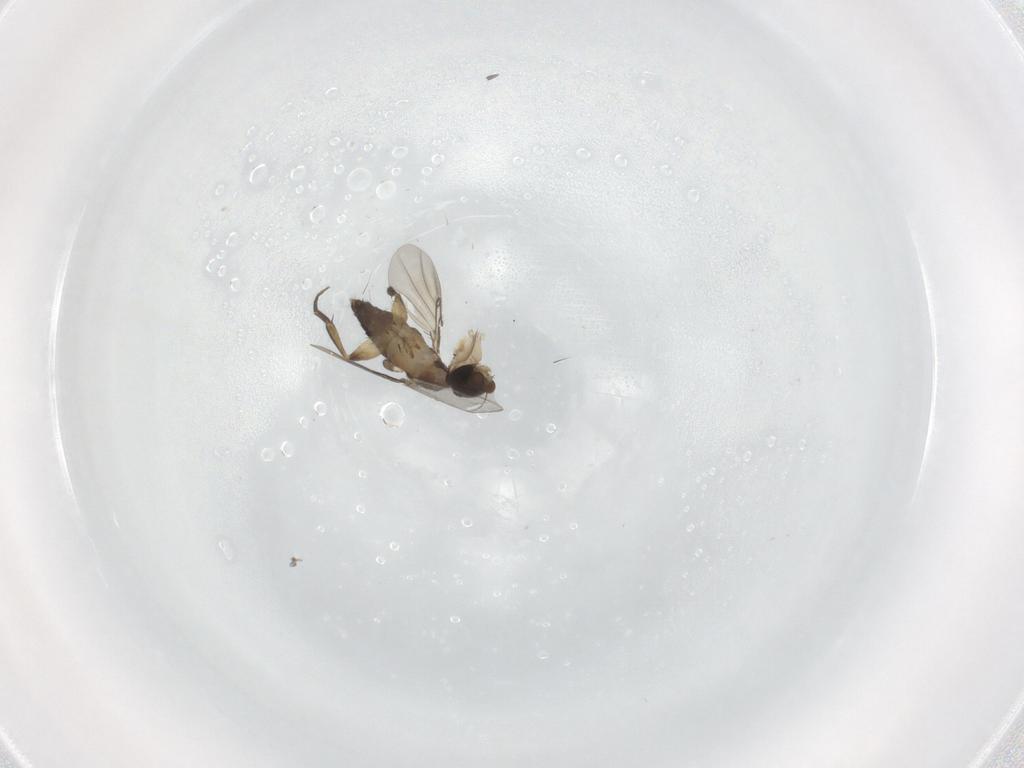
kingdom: Animalia
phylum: Arthropoda
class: Insecta
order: Diptera
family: Phoridae
